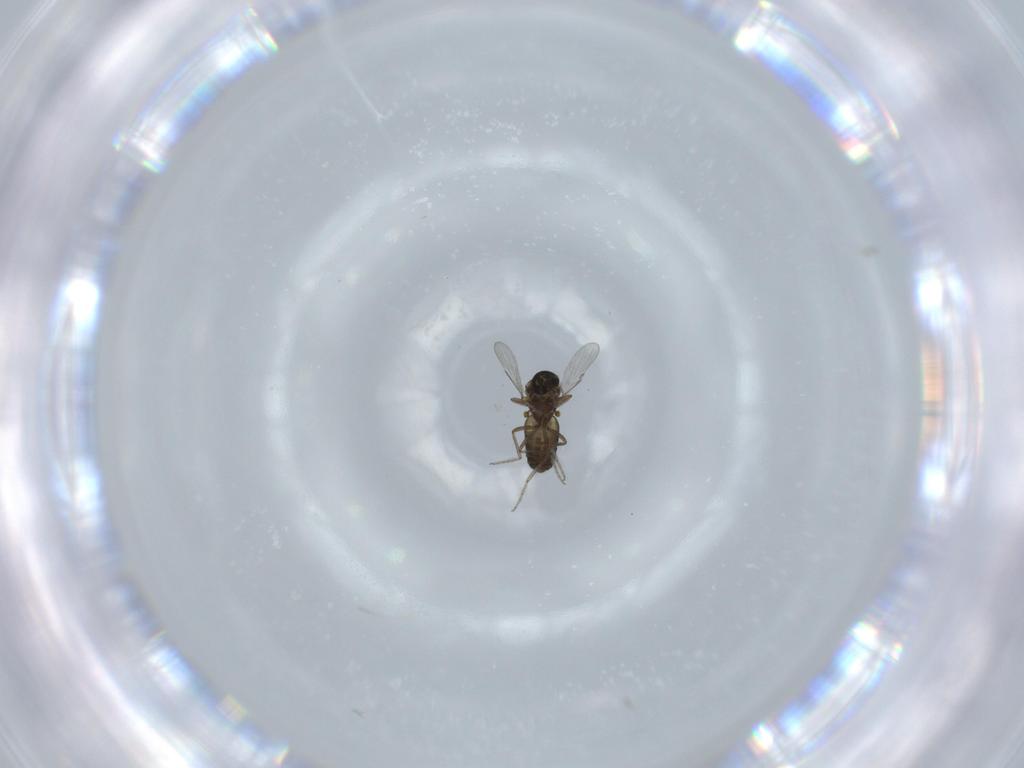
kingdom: Animalia
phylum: Arthropoda
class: Insecta
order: Diptera
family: Ceratopogonidae
